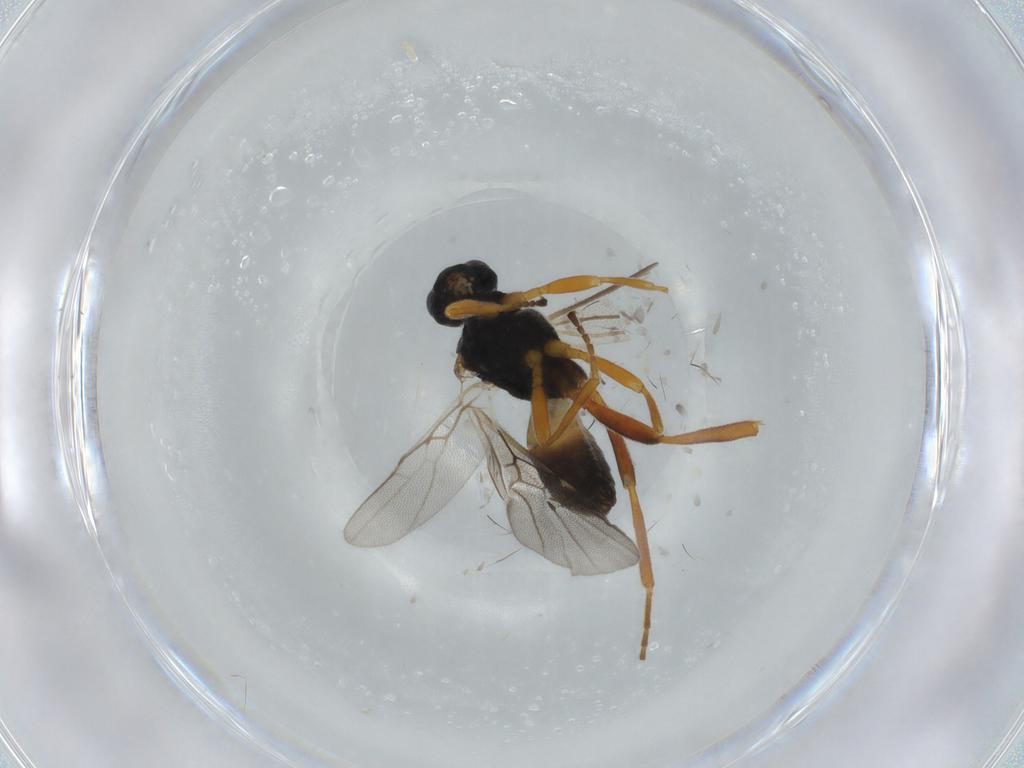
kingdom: Animalia
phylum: Arthropoda
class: Insecta
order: Hymenoptera
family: Braconidae
